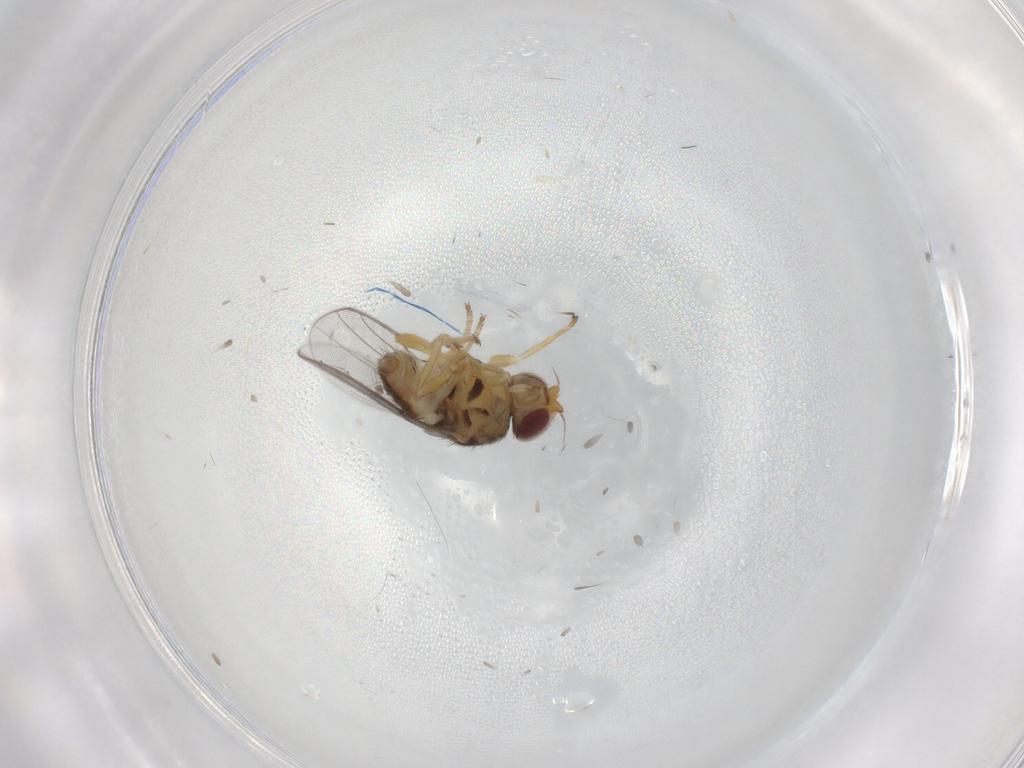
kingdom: Animalia
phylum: Arthropoda
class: Insecta
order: Diptera
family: Chloropidae
